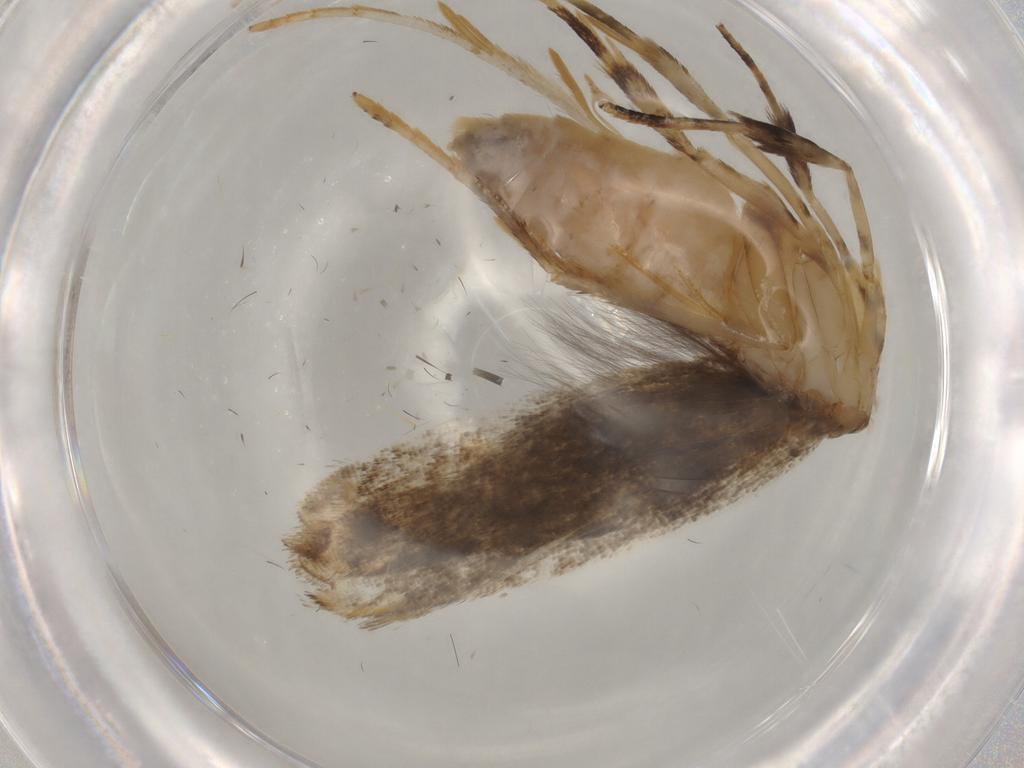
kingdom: Animalia
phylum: Arthropoda
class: Insecta
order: Lepidoptera
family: Gelechiidae
